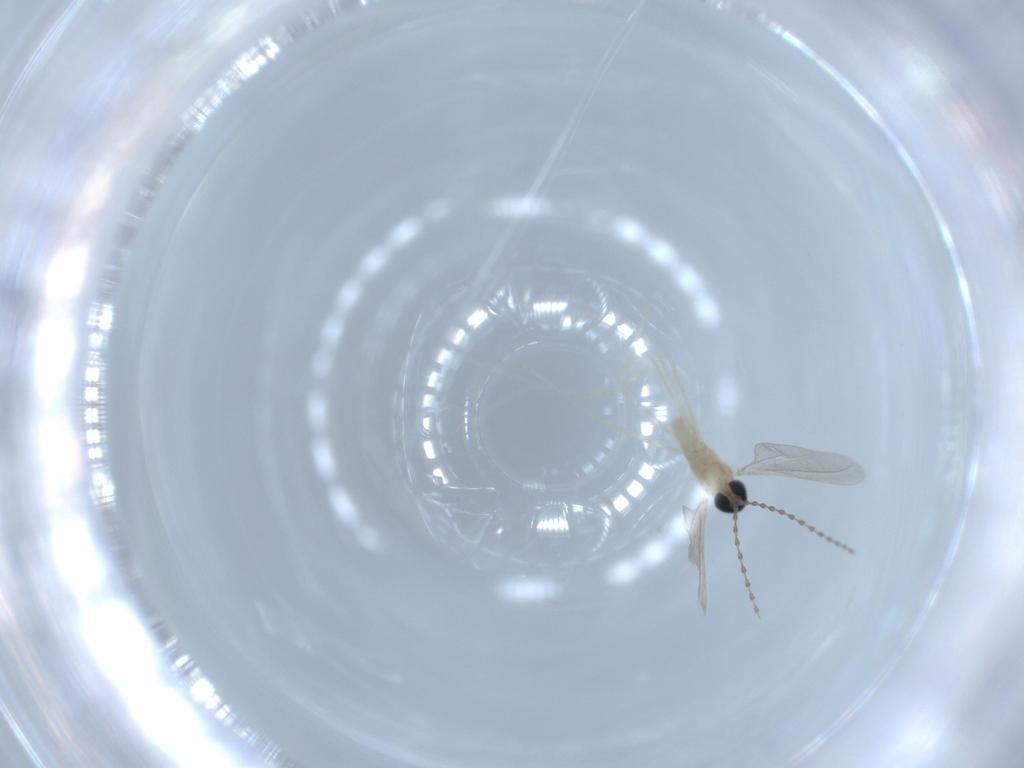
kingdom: Animalia
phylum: Arthropoda
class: Insecta
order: Diptera
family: Cecidomyiidae
